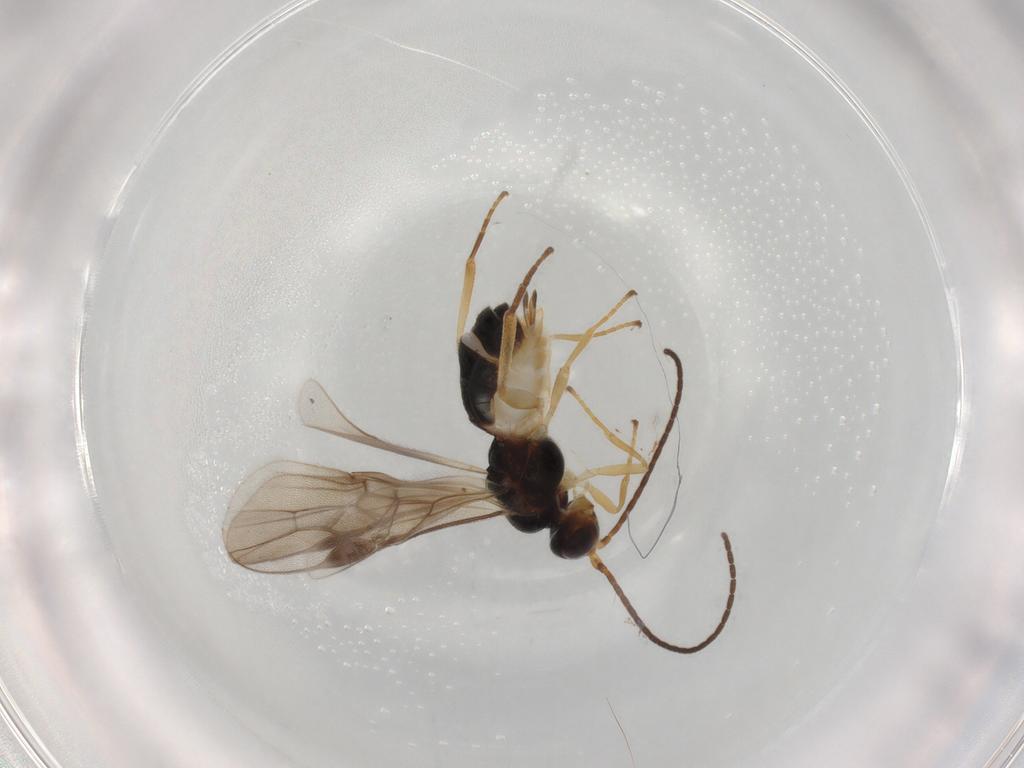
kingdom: Animalia
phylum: Arthropoda
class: Insecta
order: Hymenoptera
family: Braconidae
